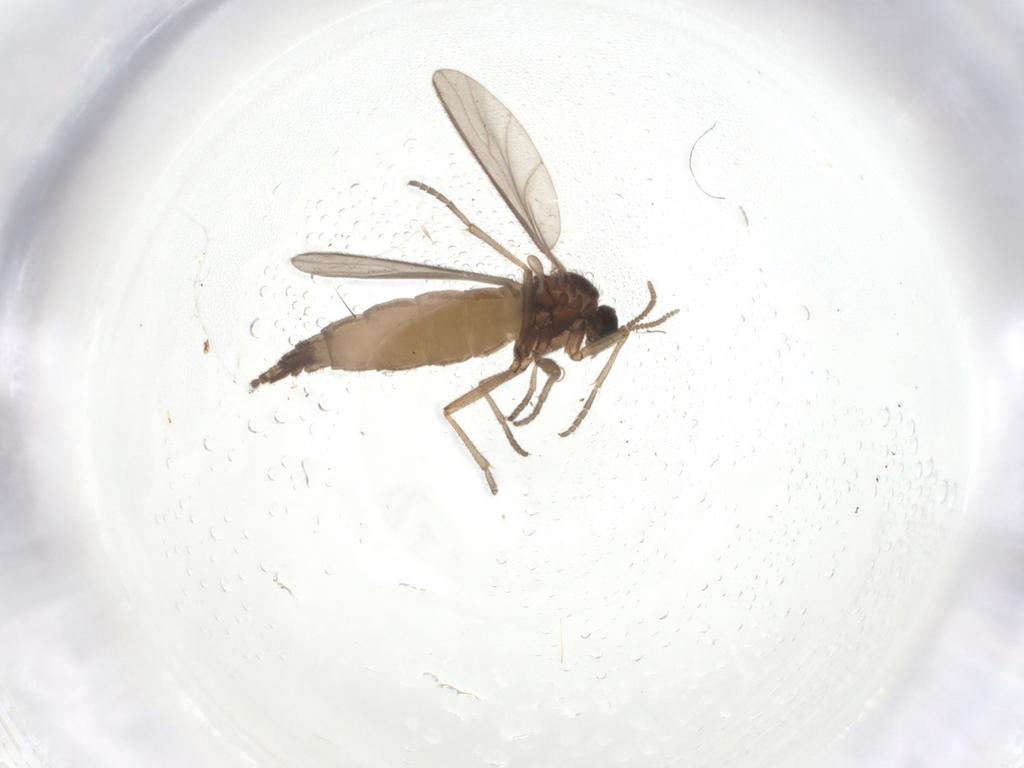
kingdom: Animalia
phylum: Arthropoda
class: Insecta
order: Diptera
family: Sciaridae
